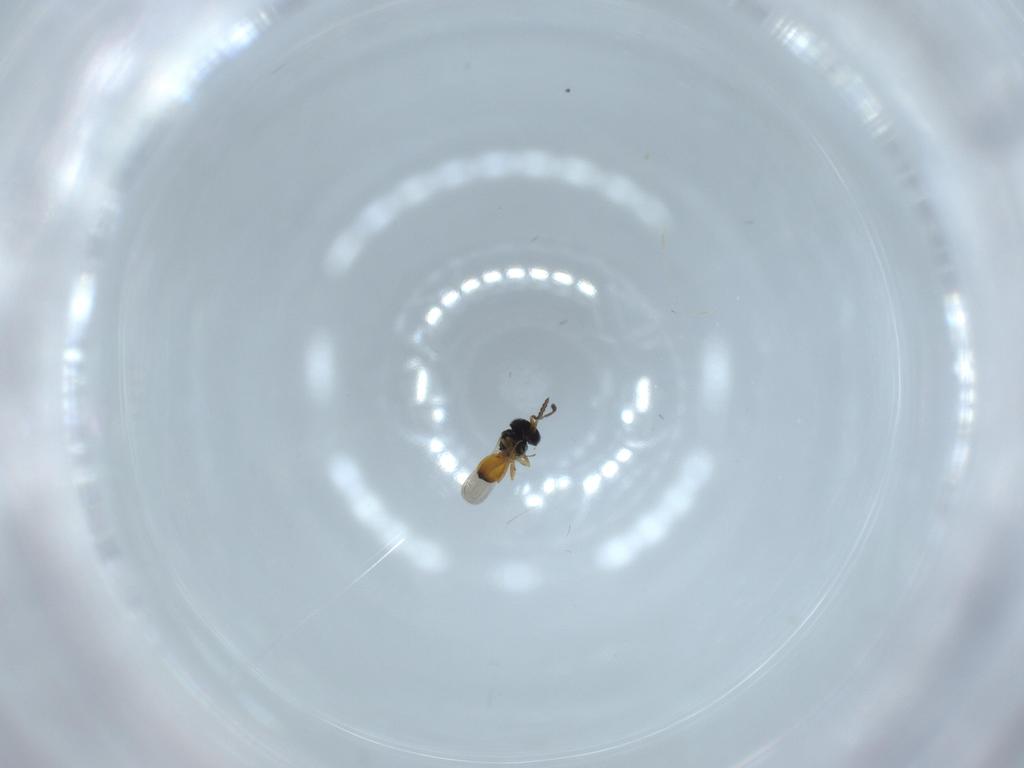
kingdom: Animalia
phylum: Arthropoda
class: Insecta
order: Hymenoptera
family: Scelionidae
